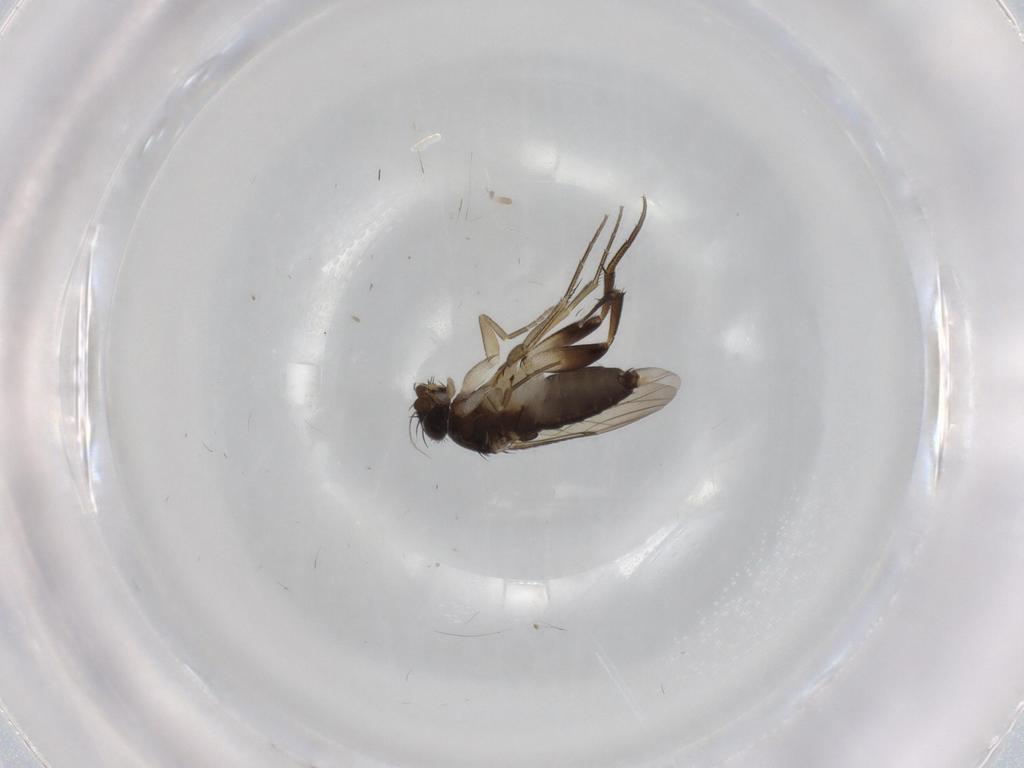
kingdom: Animalia
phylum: Arthropoda
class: Insecta
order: Diptera
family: Phoridae
